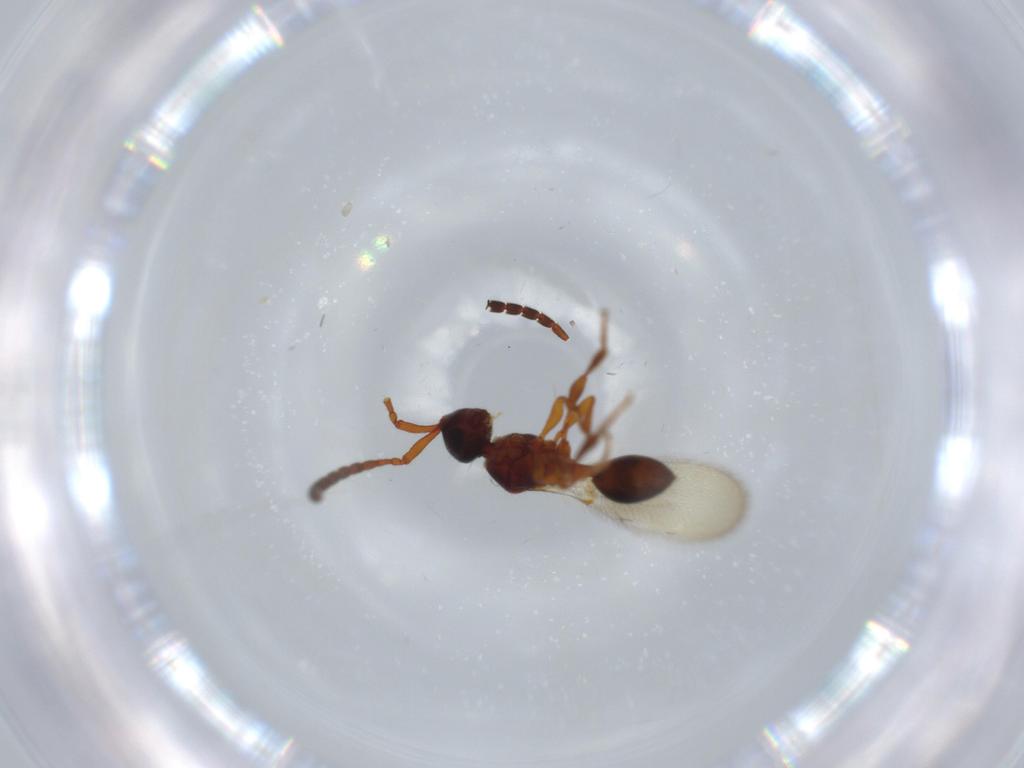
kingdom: Animalia
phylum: Arthropoda
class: Insecta
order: Hymenoptera
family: Diapriidae
